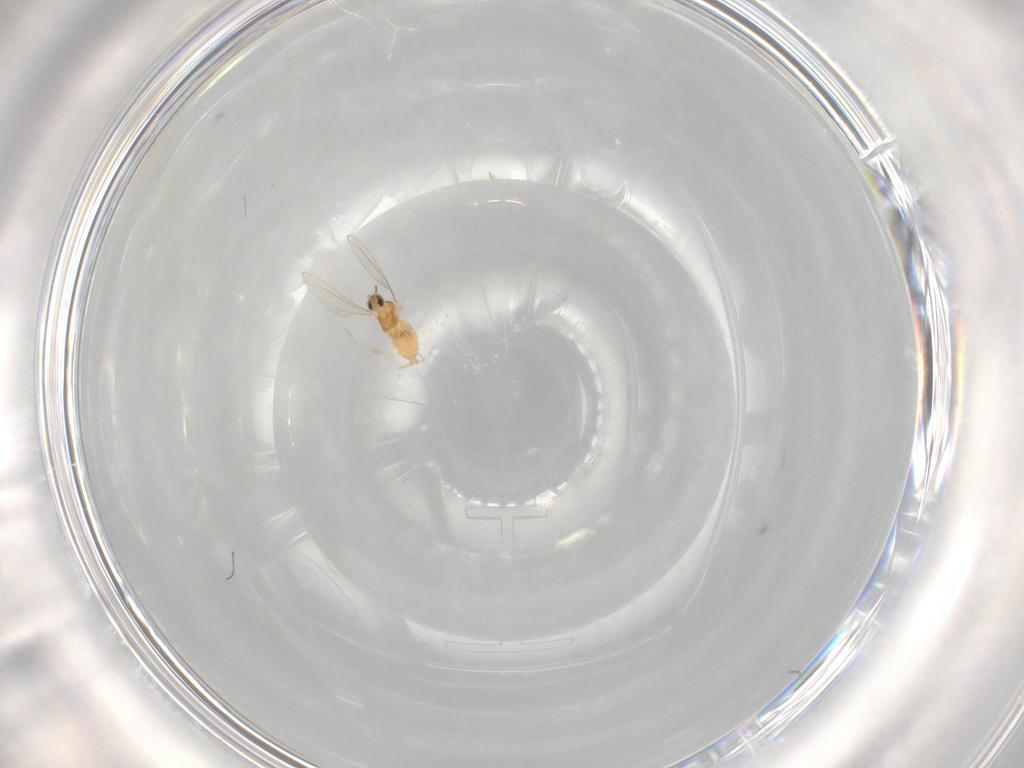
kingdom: Animalia
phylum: Arthropoda
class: Insecta
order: Diptera
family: Cecidomyiidae
